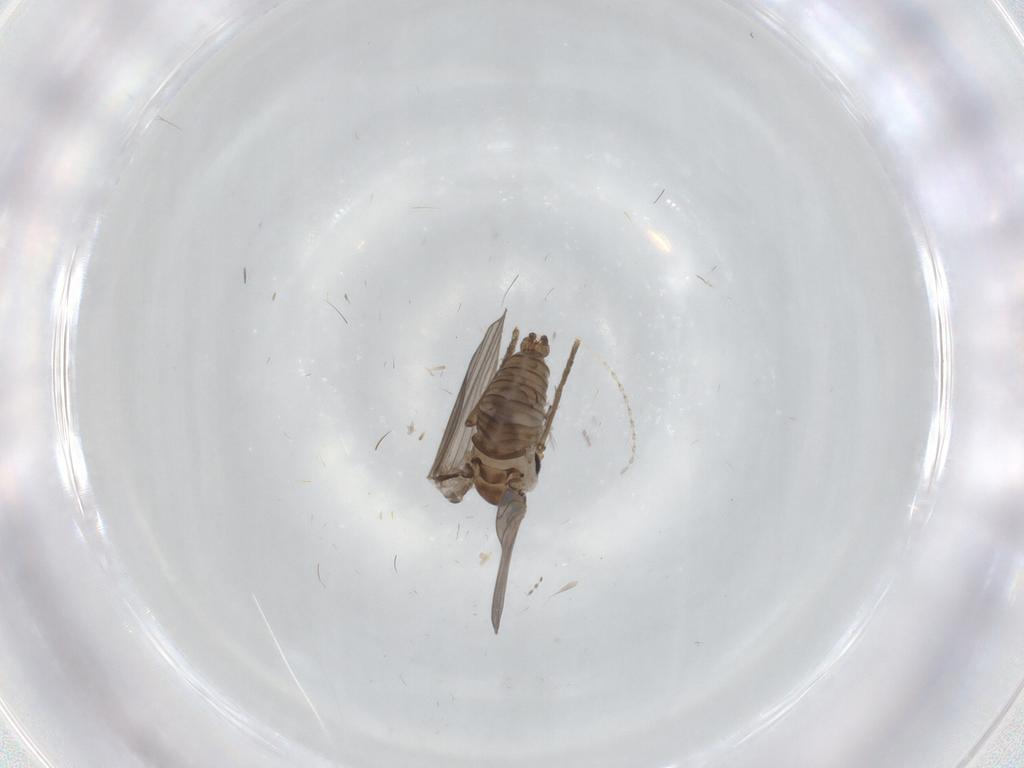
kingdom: Animalia
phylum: Arthropoda
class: Insecta
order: Diptera
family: Psychodidae
